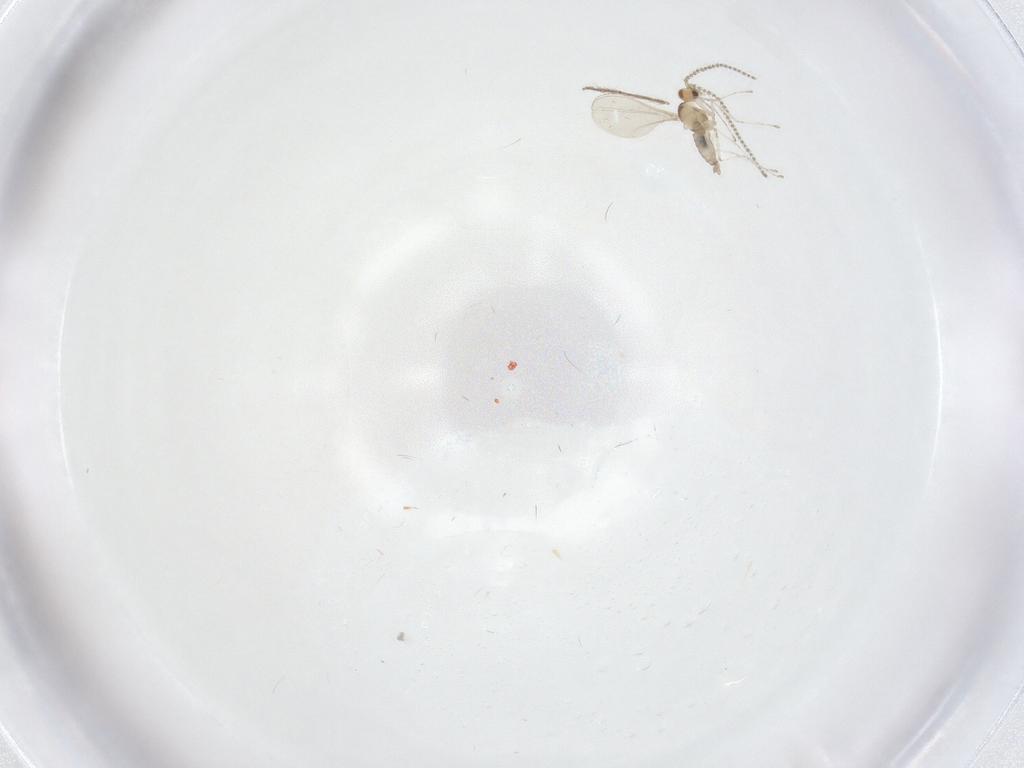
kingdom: Animalia
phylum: Arthropoda
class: Insecta
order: Diptera
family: Cecidomyiidae
